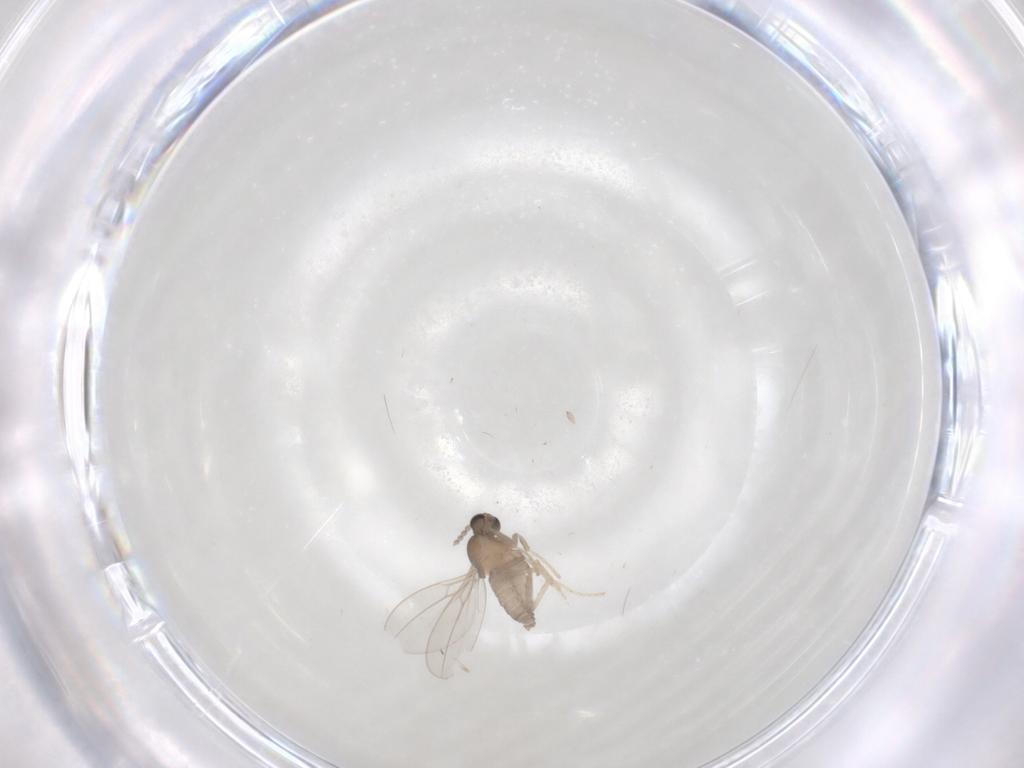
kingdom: Animalia
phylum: Arthropoda
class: Insecta
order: Diptera
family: Cecidomyiidae
